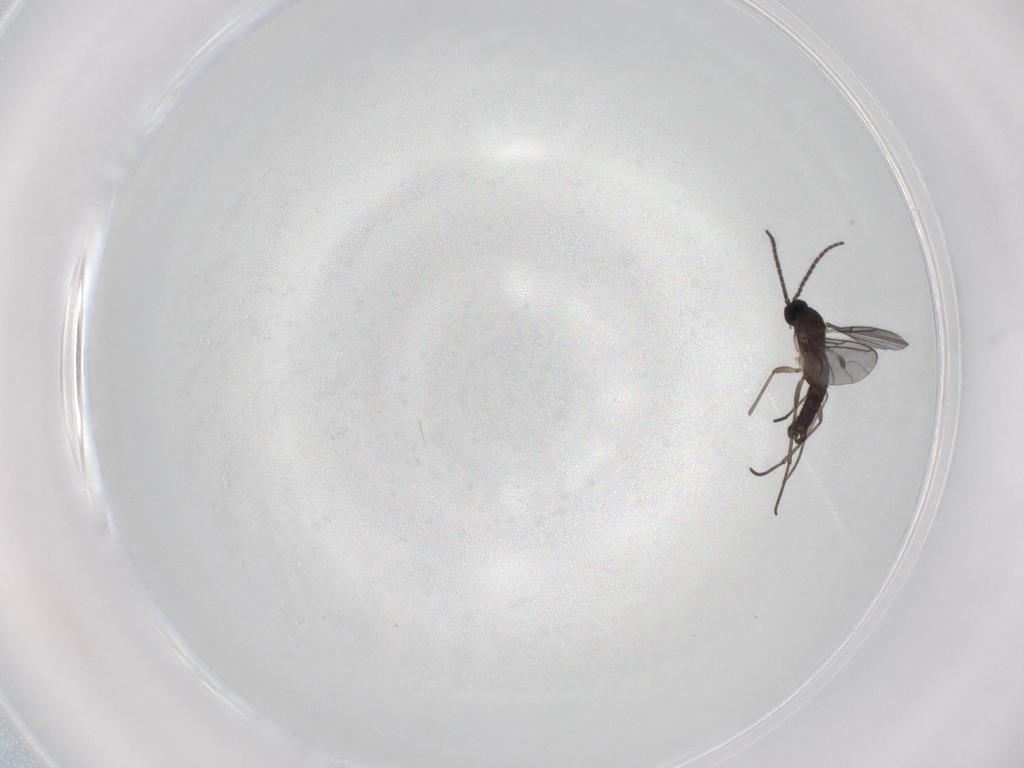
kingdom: Animalia
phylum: Arthropoda
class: Insecta
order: Diptera
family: Sciaridae
